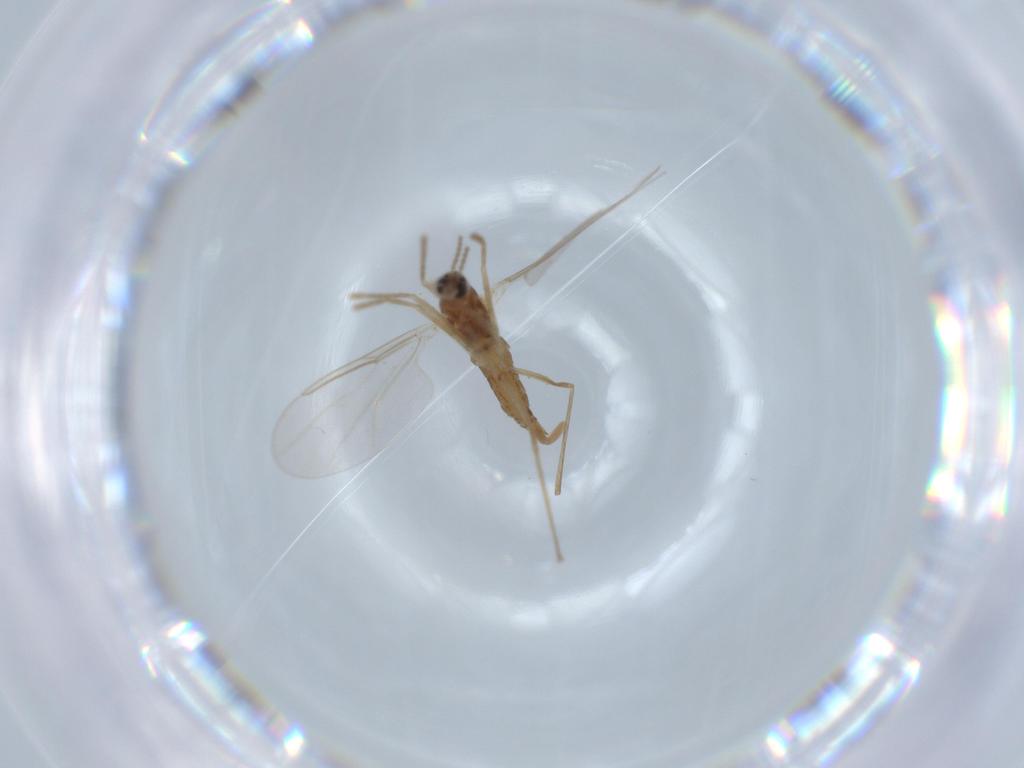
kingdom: Animalia
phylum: Arthropoda
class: Insecta
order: Diptera
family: Cecidomyiidae
